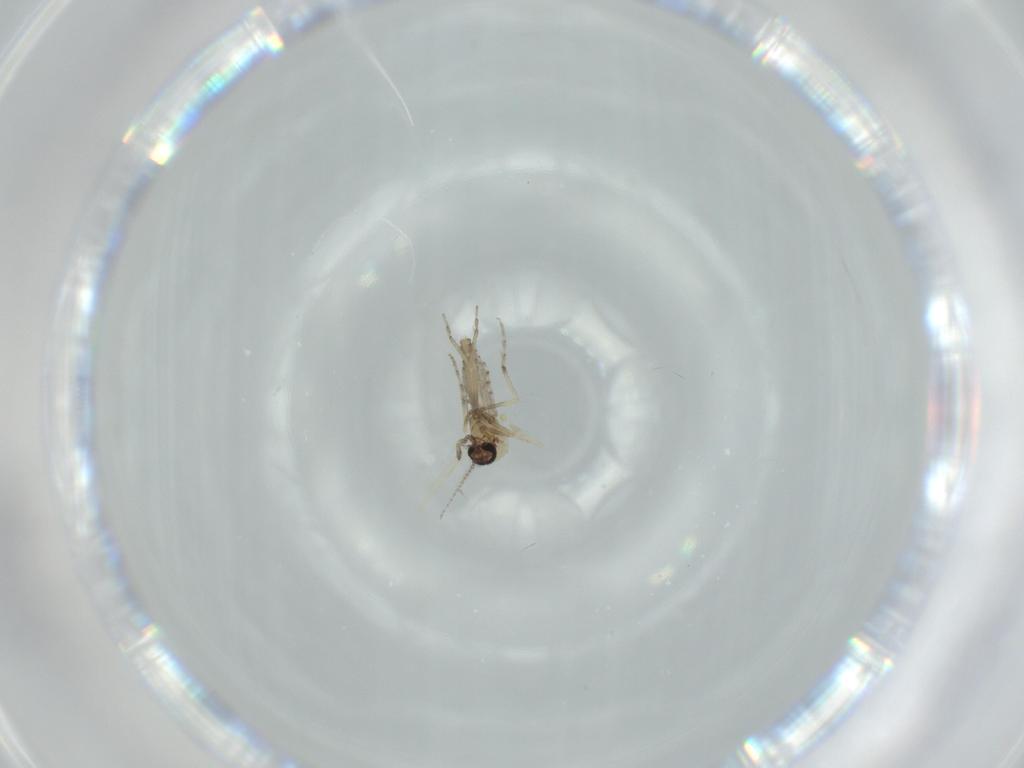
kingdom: Animalia
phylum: Arthropoda
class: Insecta
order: Diptera
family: Ceratopogonidae
